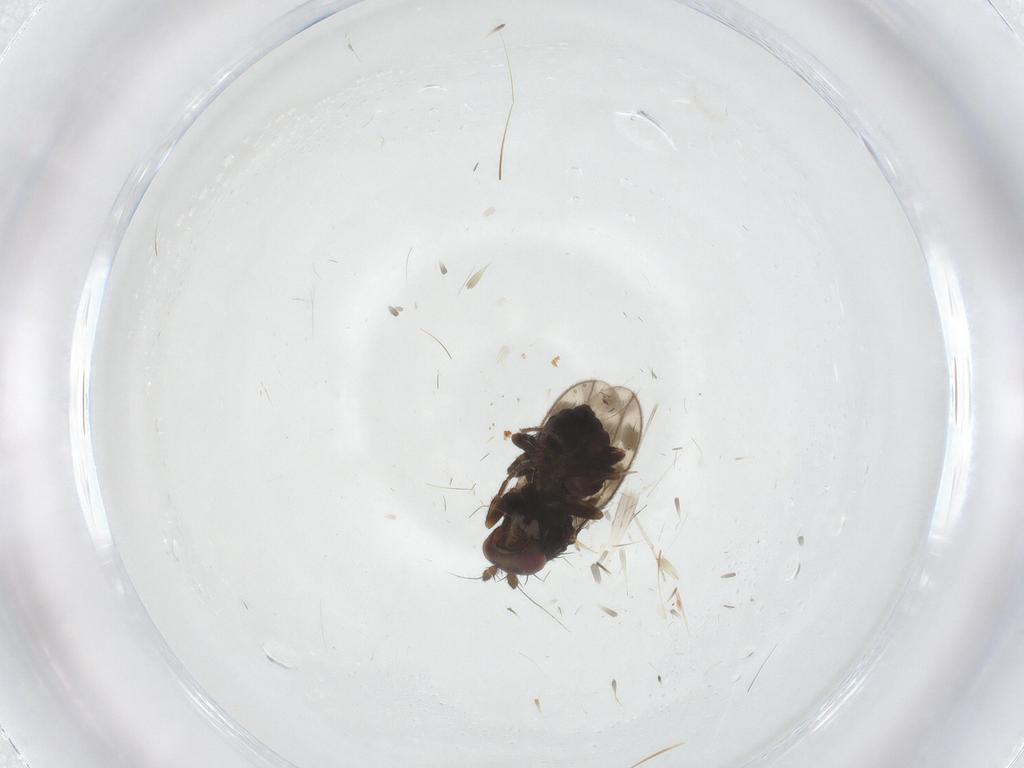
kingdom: Animalia
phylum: Arthropoda
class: Insecta
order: Diptera
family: Sphaeroceridae
